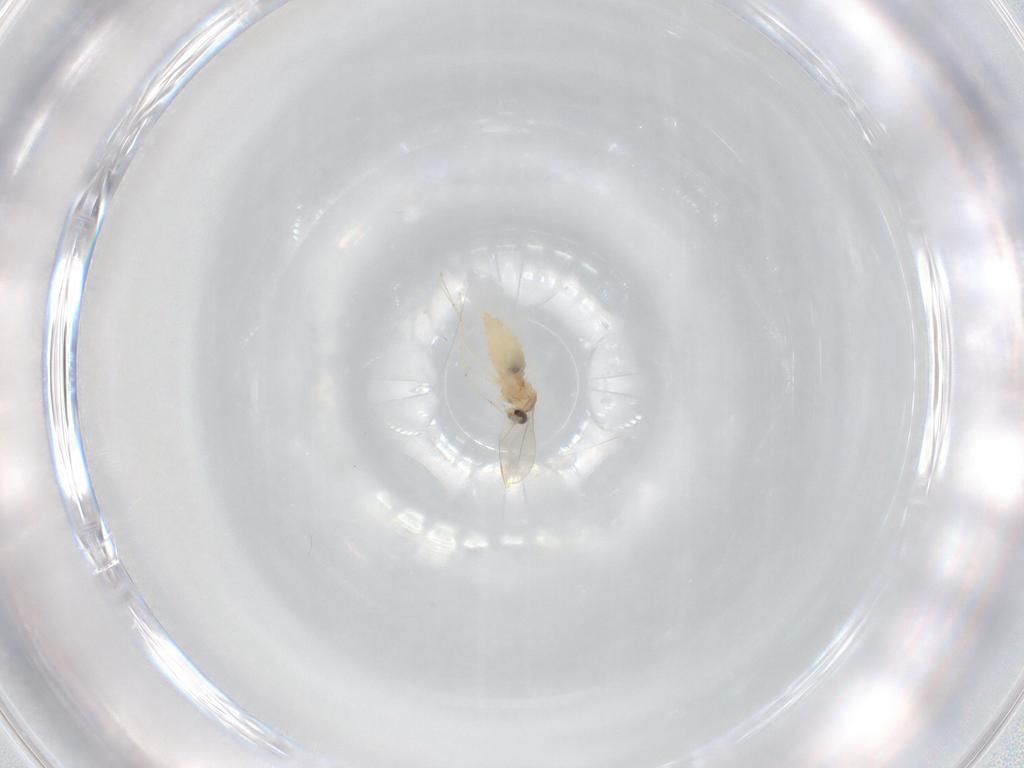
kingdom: Animalia
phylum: Arthropoda
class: Insecta
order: Diptera
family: Cecidomyiidae
